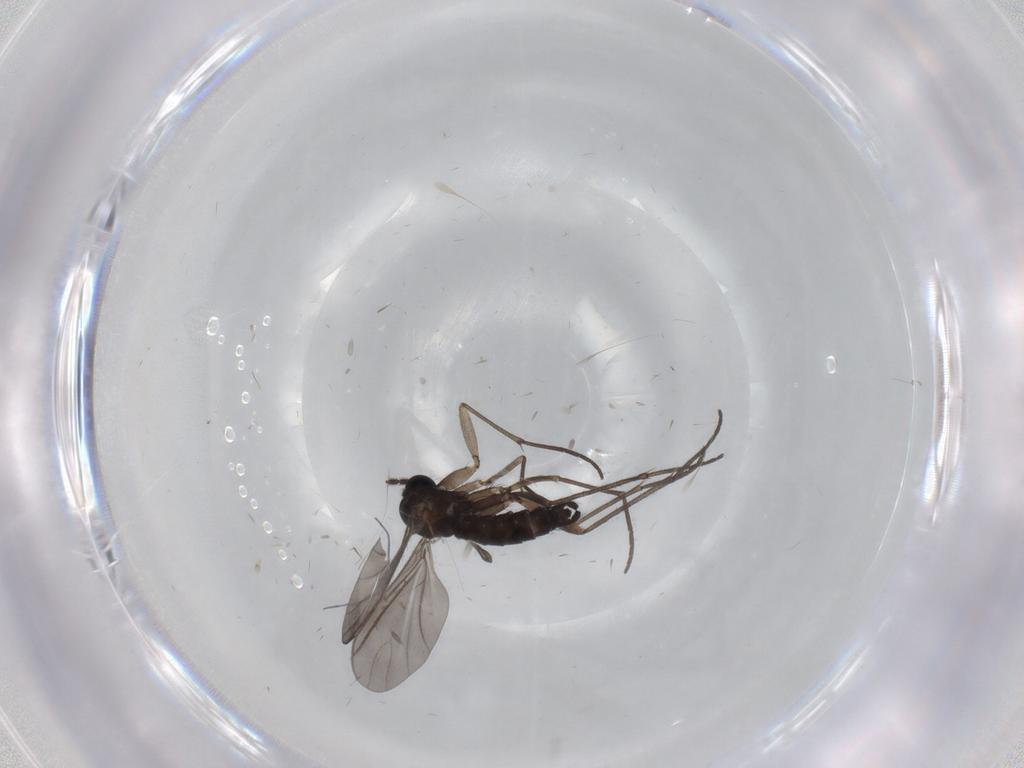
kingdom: Animalia
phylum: Arthropoda
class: Insecta
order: Diptera
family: Sciaridae
